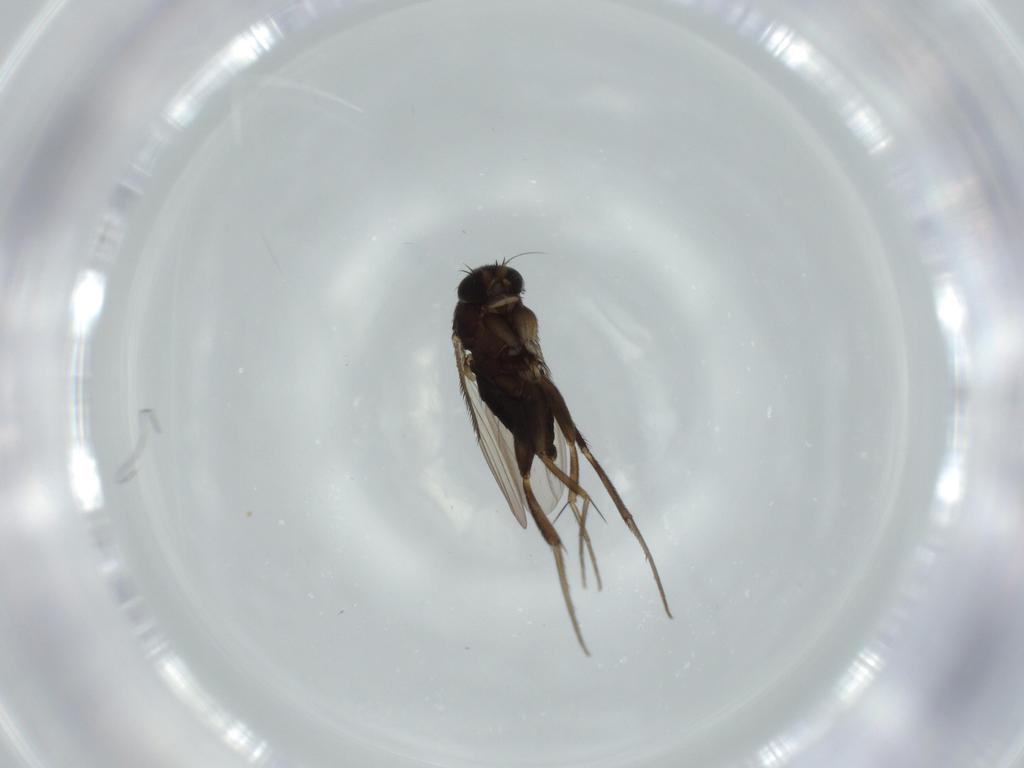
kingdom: Animalia
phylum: Arthropoda
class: Insecta
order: Diptera
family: Phoridae
